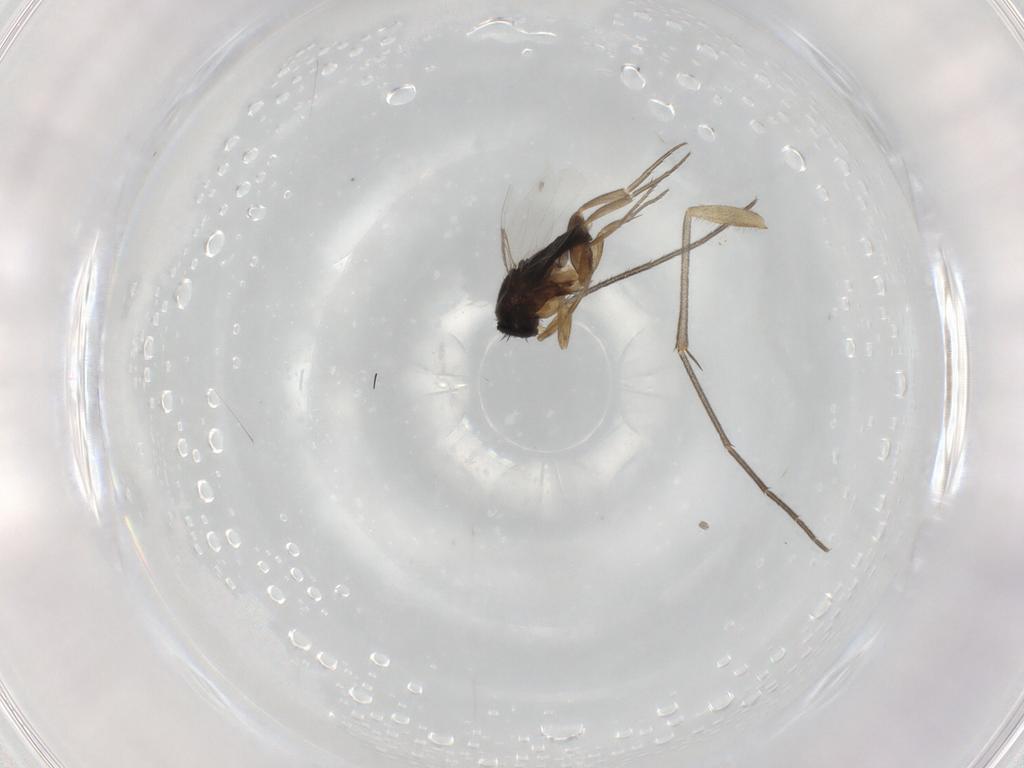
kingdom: Animalia
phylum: Arthropoda
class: Insecta
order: Diptera
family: Phoridae
